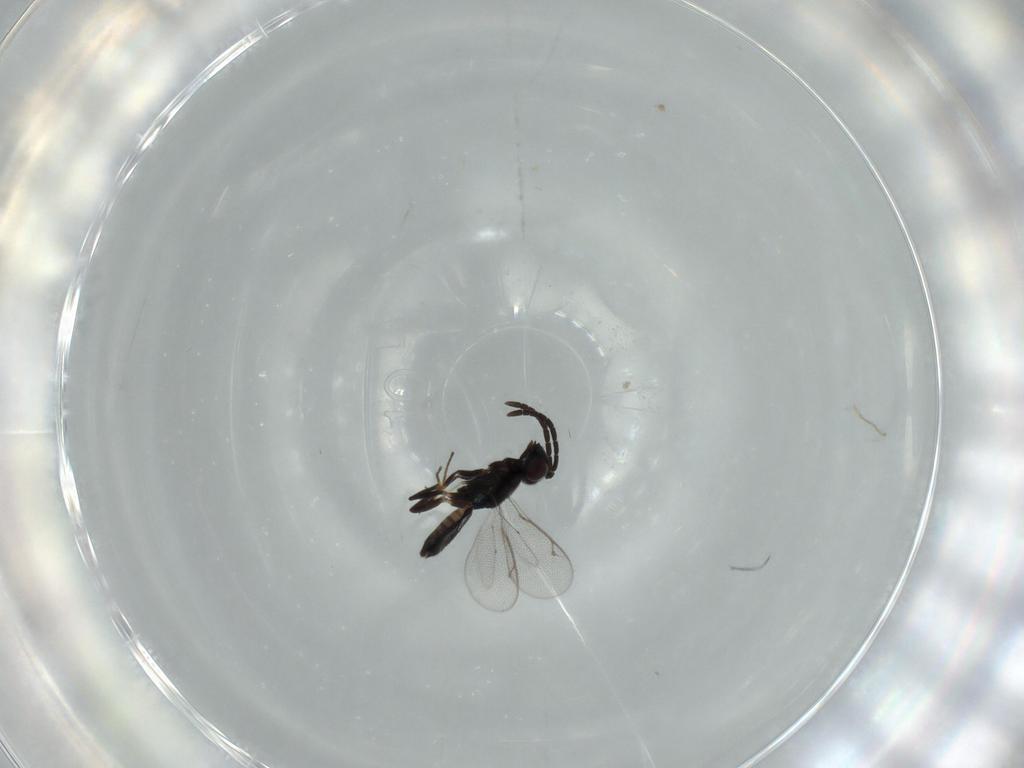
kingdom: Animalia
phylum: Arthropoda
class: Insecta
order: Hymenoptera
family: Eupelmidae
